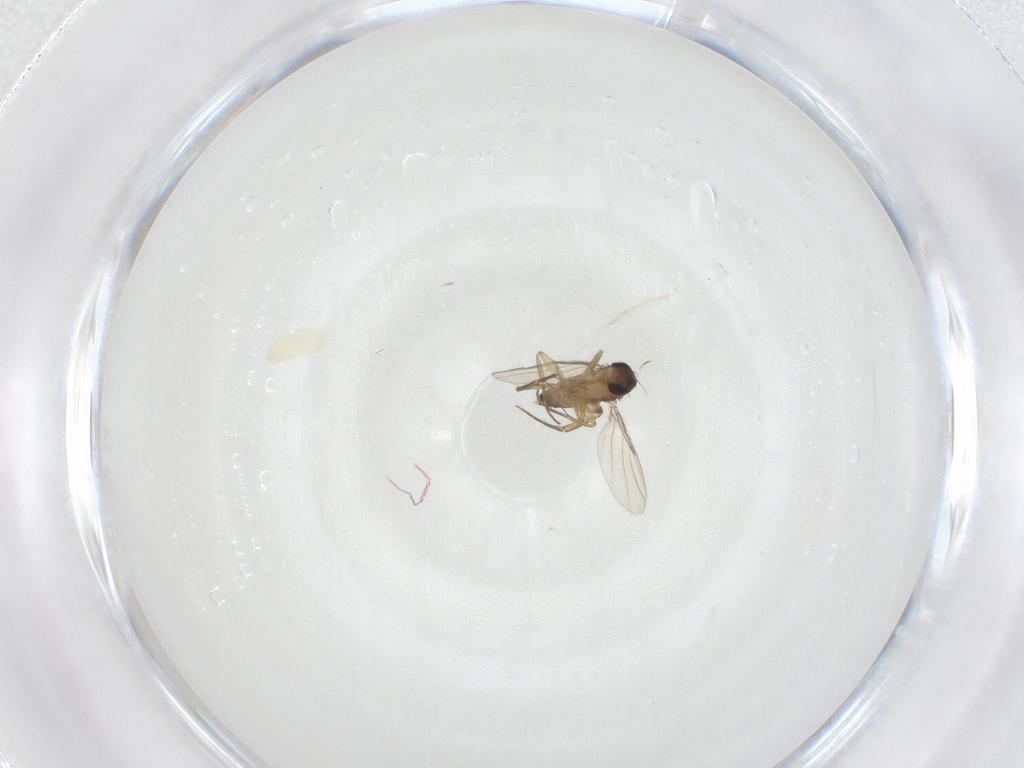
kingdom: Animalia
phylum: Arthropoda
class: Insecta
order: Diptera
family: Phoridae
